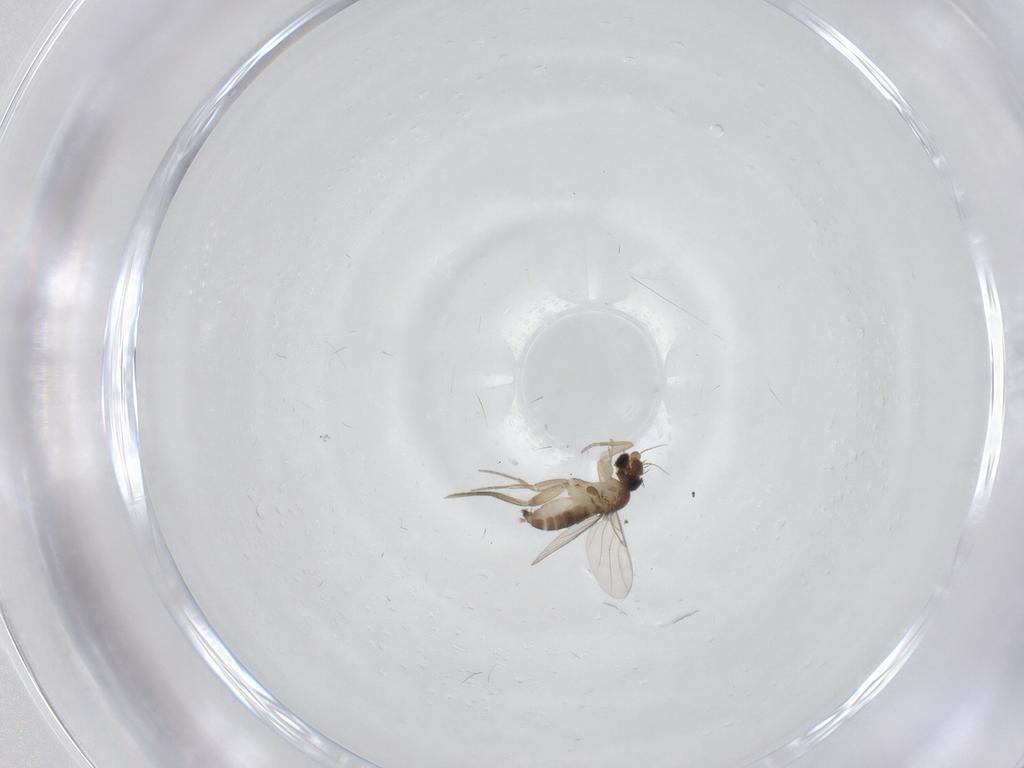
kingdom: Animalia
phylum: Arthropoda
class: Insecta
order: Diptera
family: Phoridae
